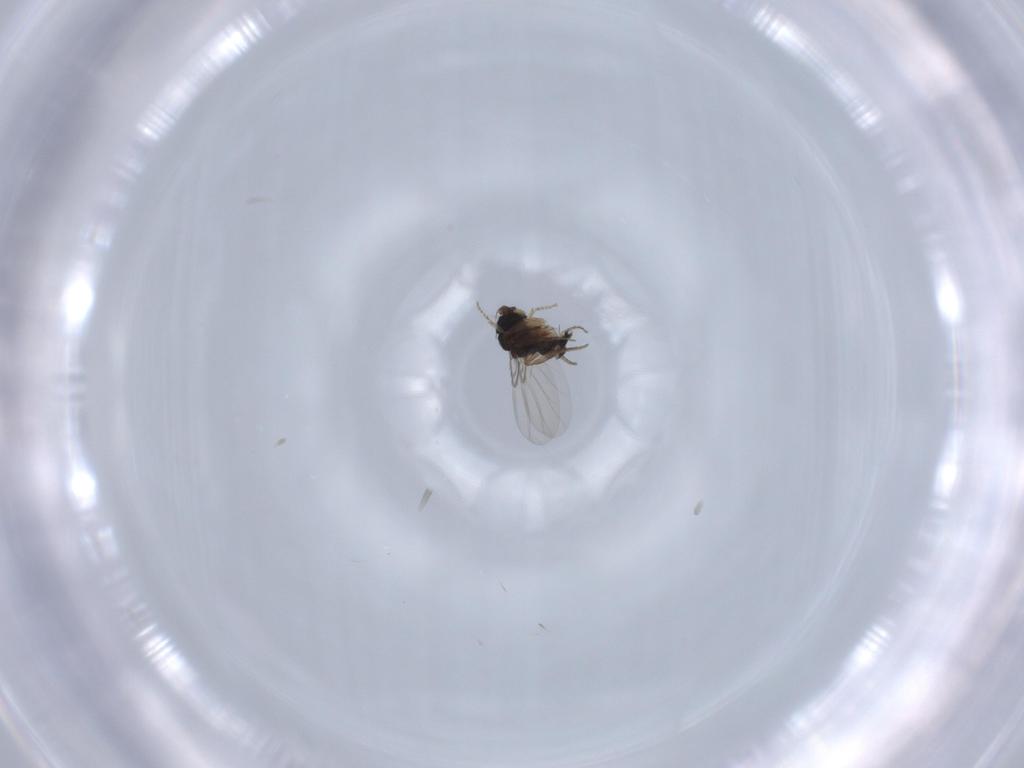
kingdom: Animalia
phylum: Arthropoda
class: Insecta
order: Diptera
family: Phoridae
